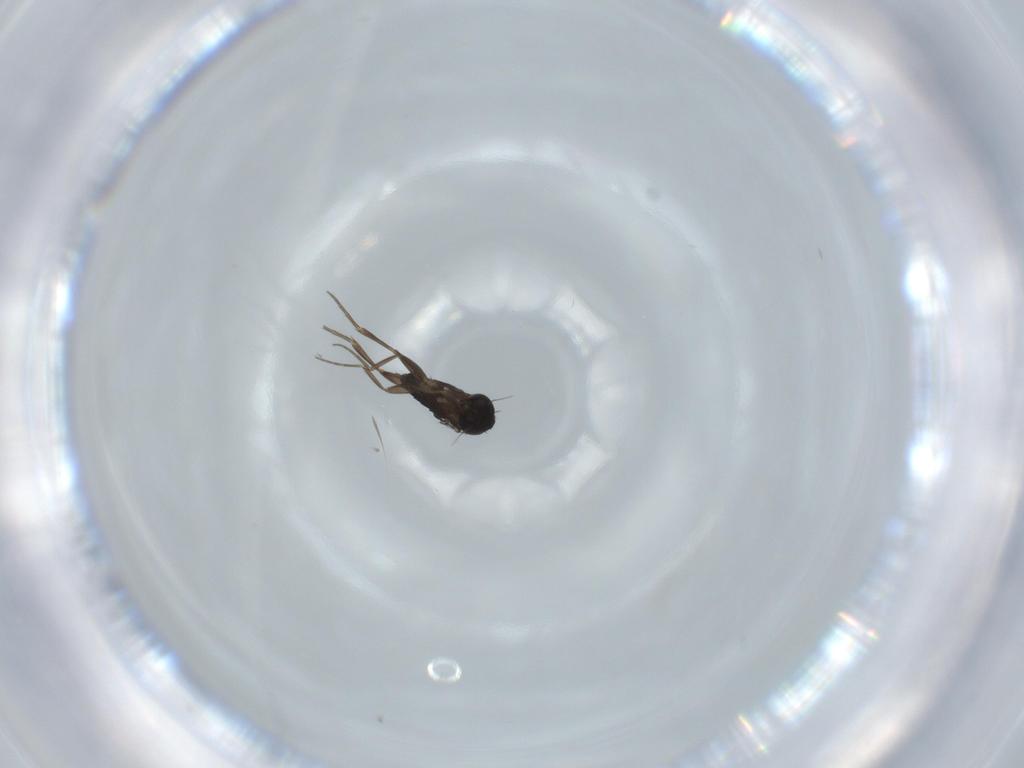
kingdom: Animalia
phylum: Arthropoda
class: Insecta
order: Diptera
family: Phoridae
